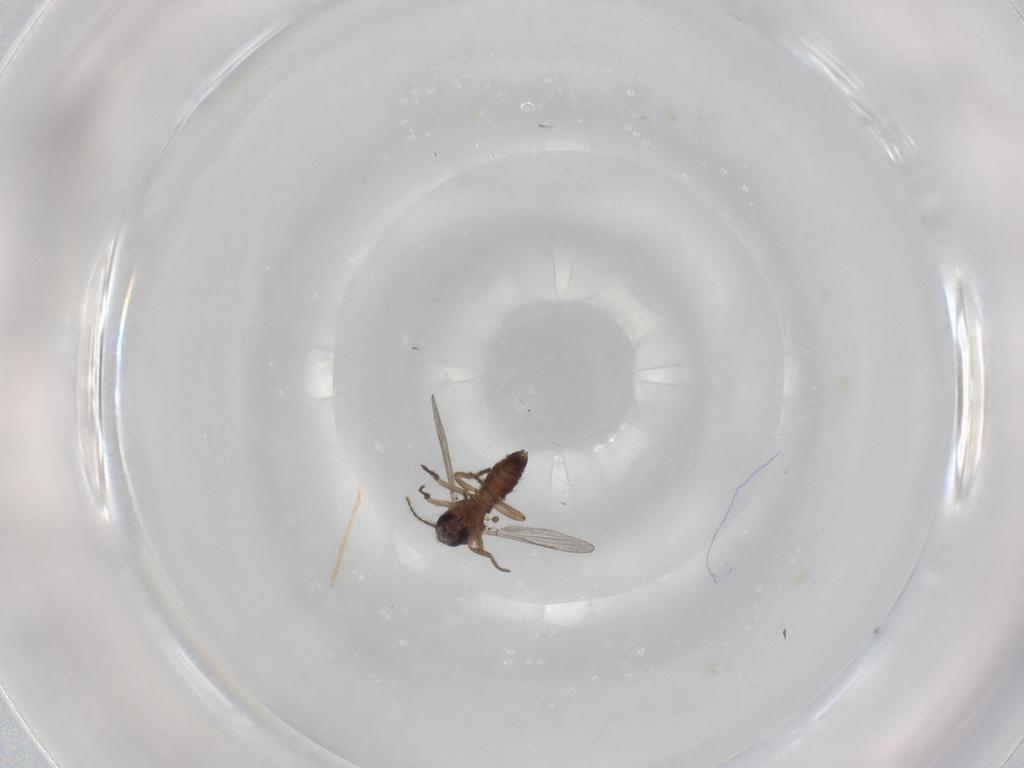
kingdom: Animalia
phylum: Arthropoda
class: Insecta
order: Diptera
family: Ceratopogonidae
